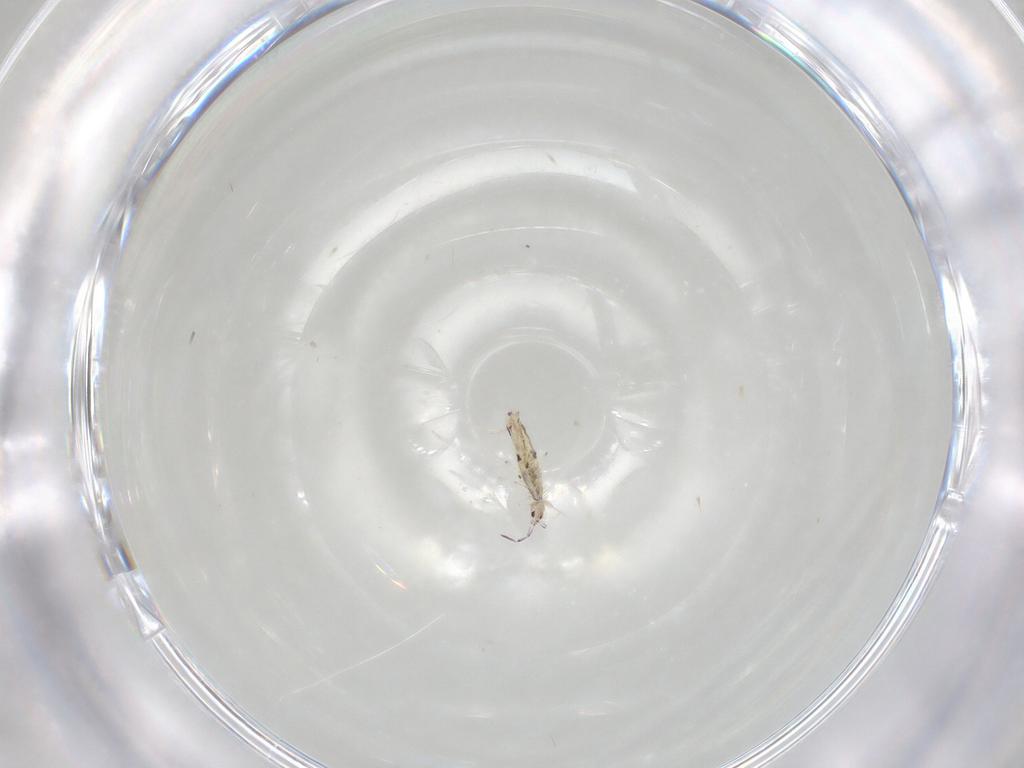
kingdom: Animalia
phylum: Arthropoda
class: Collembola
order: Entomobryomorpha
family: Entomobryidae
